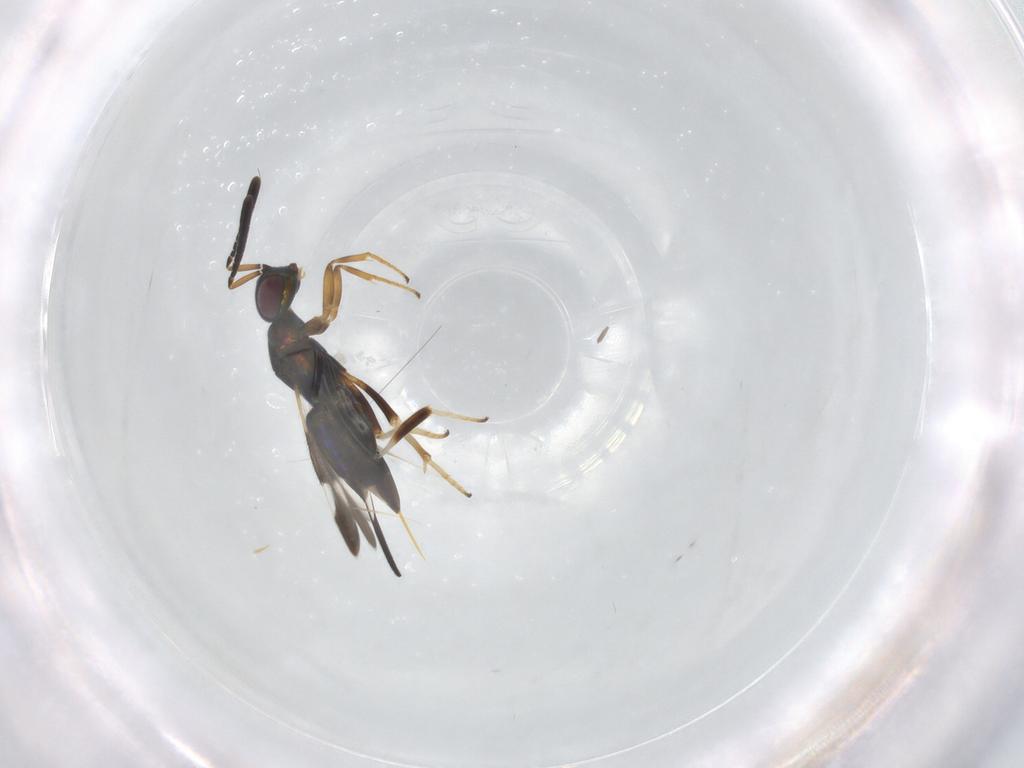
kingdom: Animalia
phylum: Arthropoda
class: Insecta
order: Hymenoptera
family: Encyrtidae
